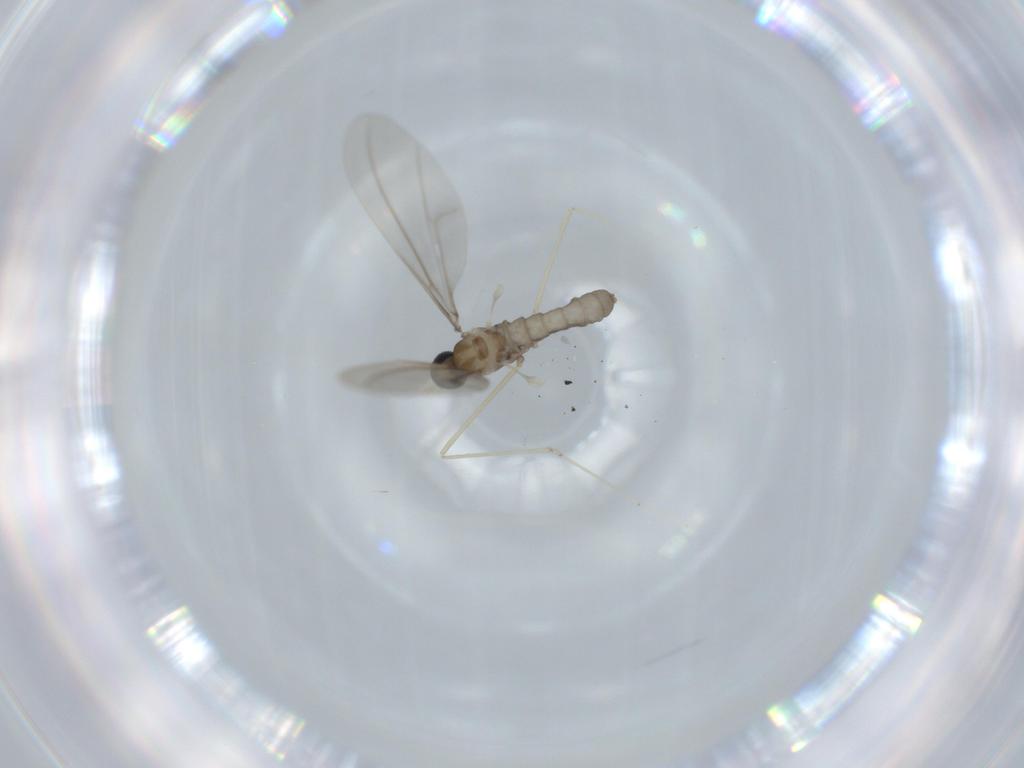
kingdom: Animalia
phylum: Arthropoda
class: Insecta
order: Diptera
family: Cecidomyiidae
